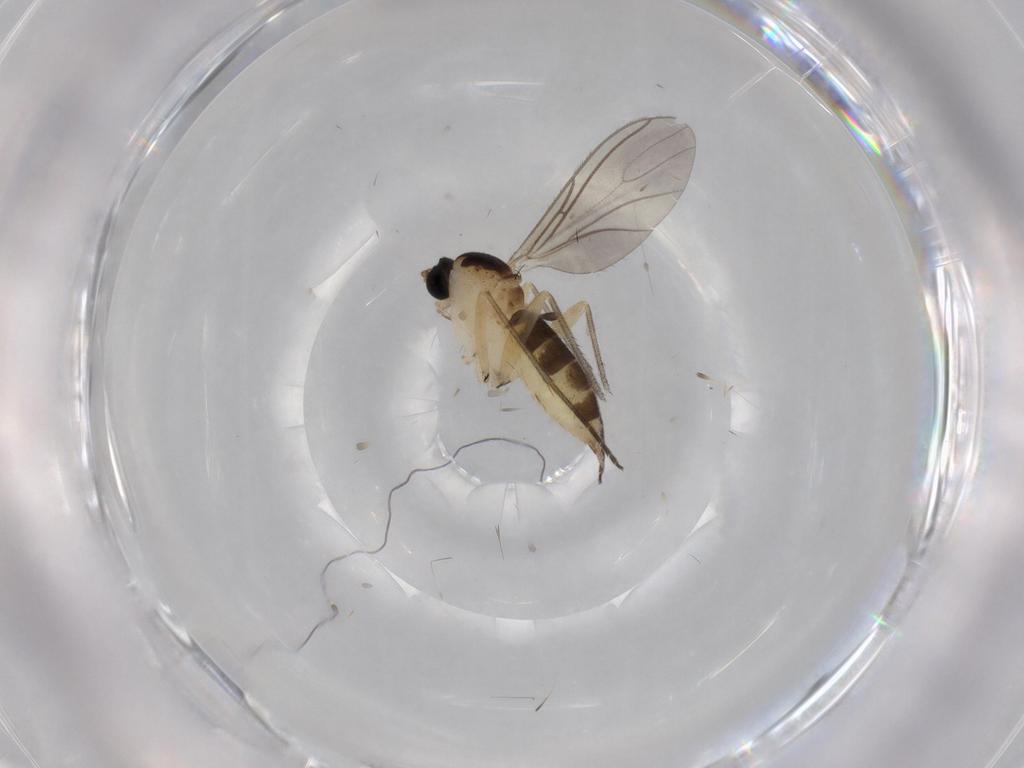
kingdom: Animalia
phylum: Arthropoda
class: Insecta
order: Diptera
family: Sciaridae
